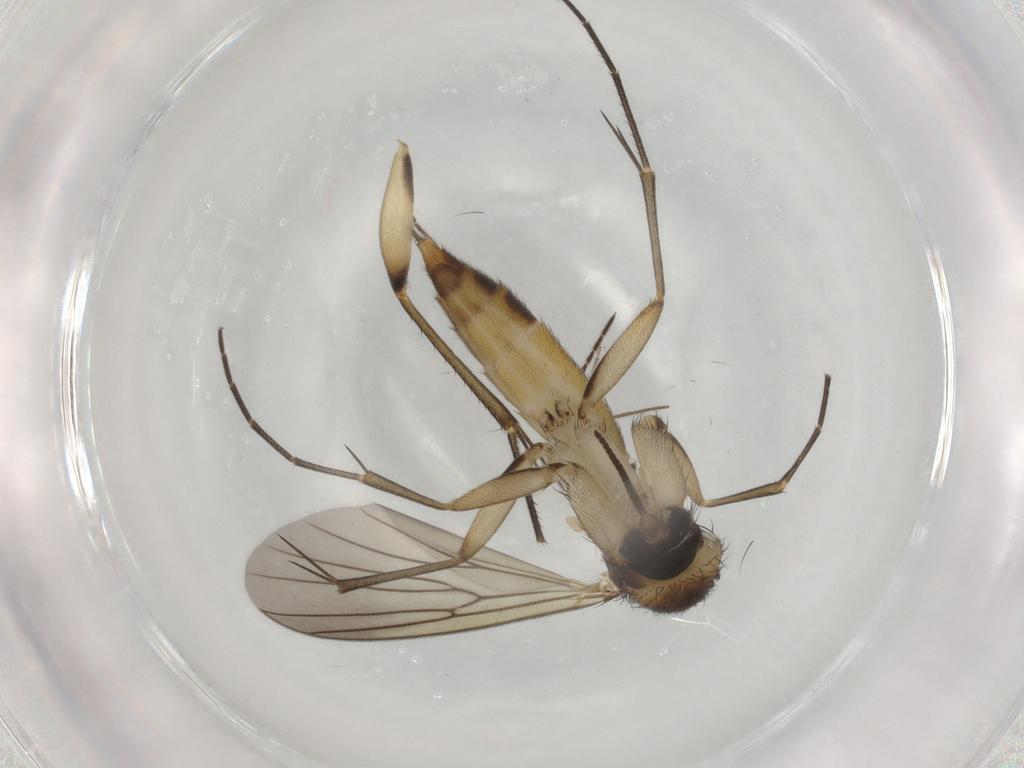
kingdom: Animalia
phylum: Arthropoda
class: Insecta
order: Diptera
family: Mycetophilidae
